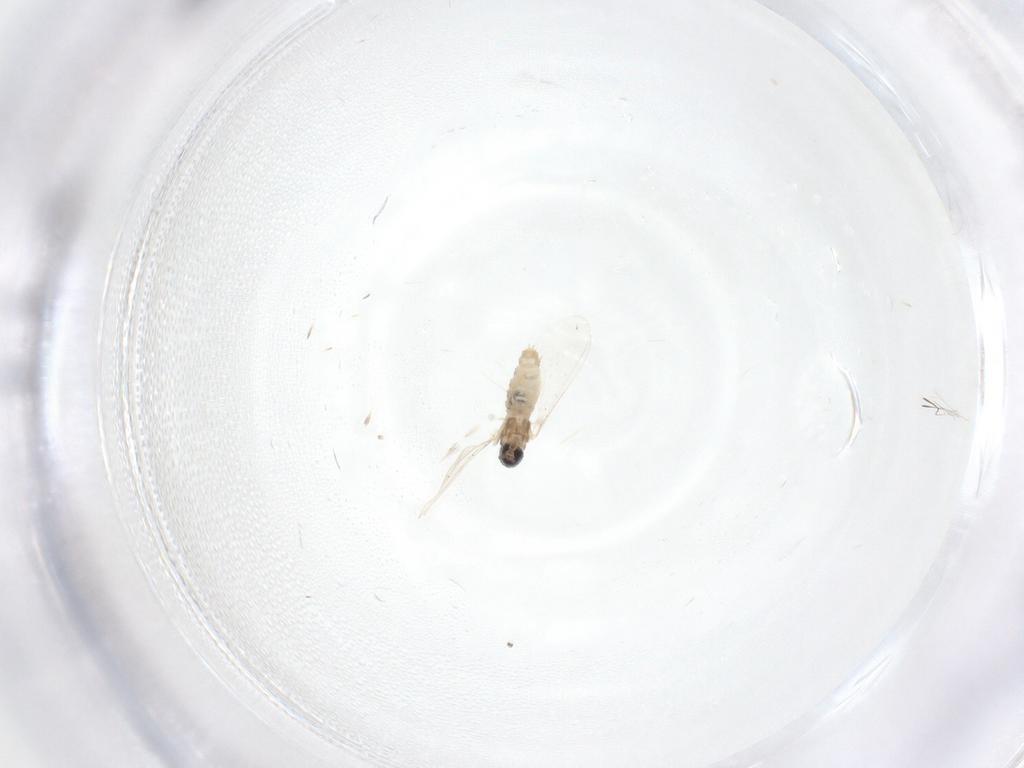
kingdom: Animalia
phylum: Arthropoda
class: Insecta
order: Diptera
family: Cecidomyiidae
